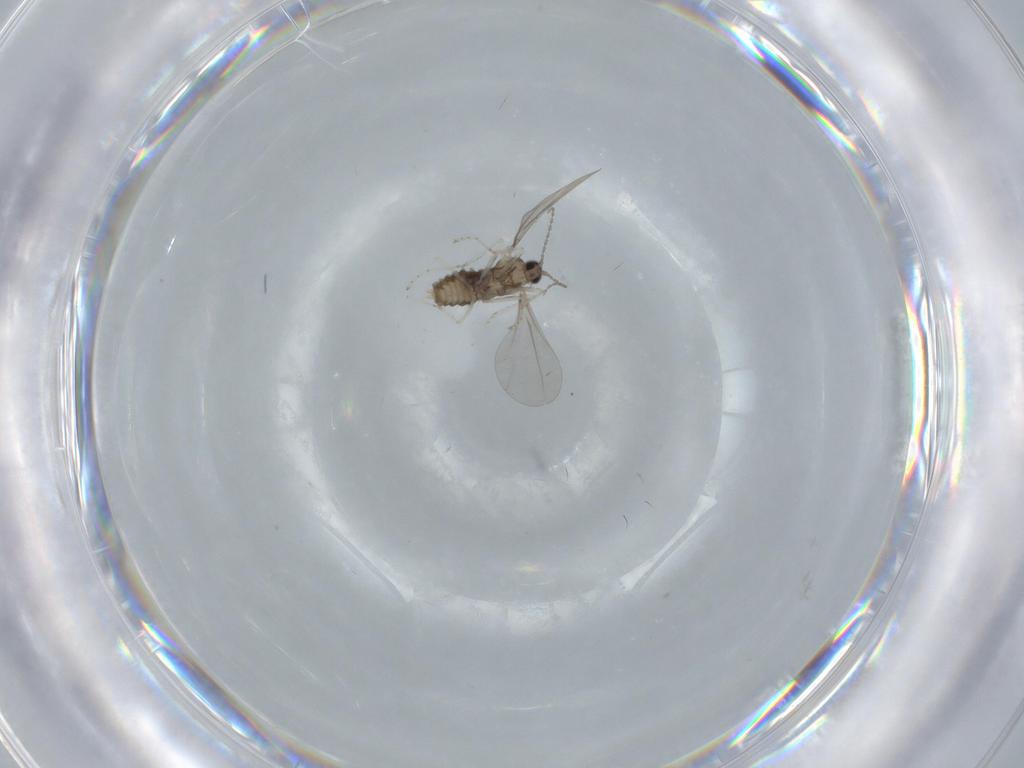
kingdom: Animalia
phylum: Arthropoda
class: Insecta
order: Diptera
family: Cecidomyiidae
